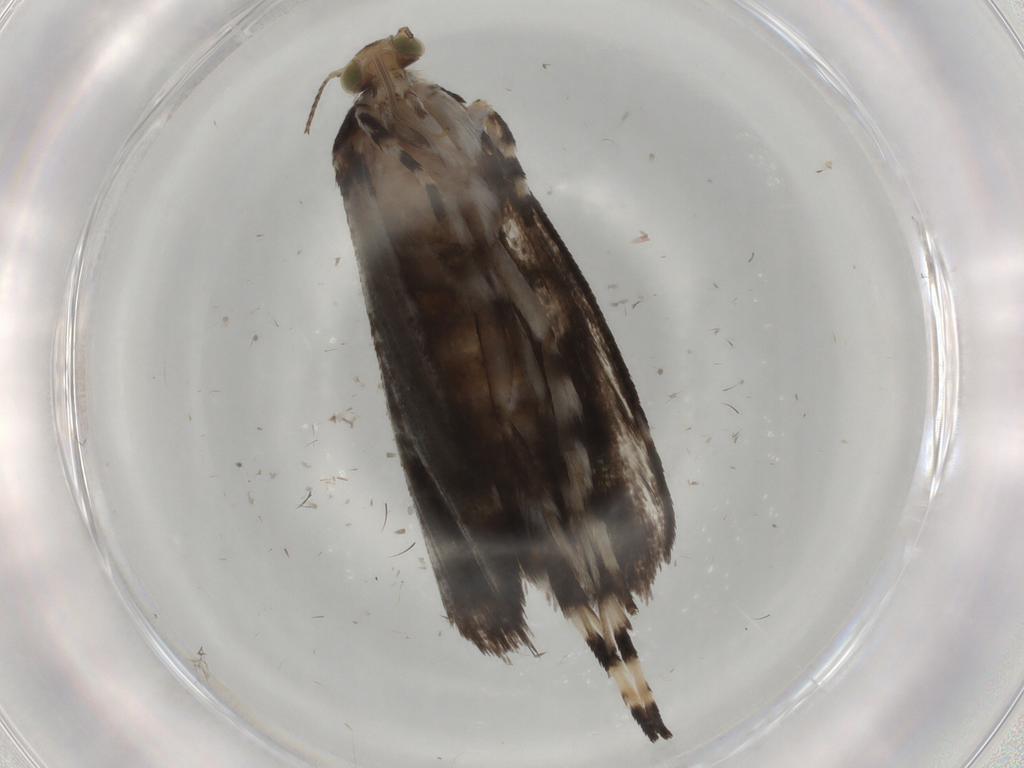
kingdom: Animalia
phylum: Arthropoda
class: Insecta
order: Lepidoptera
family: Choreutidae
